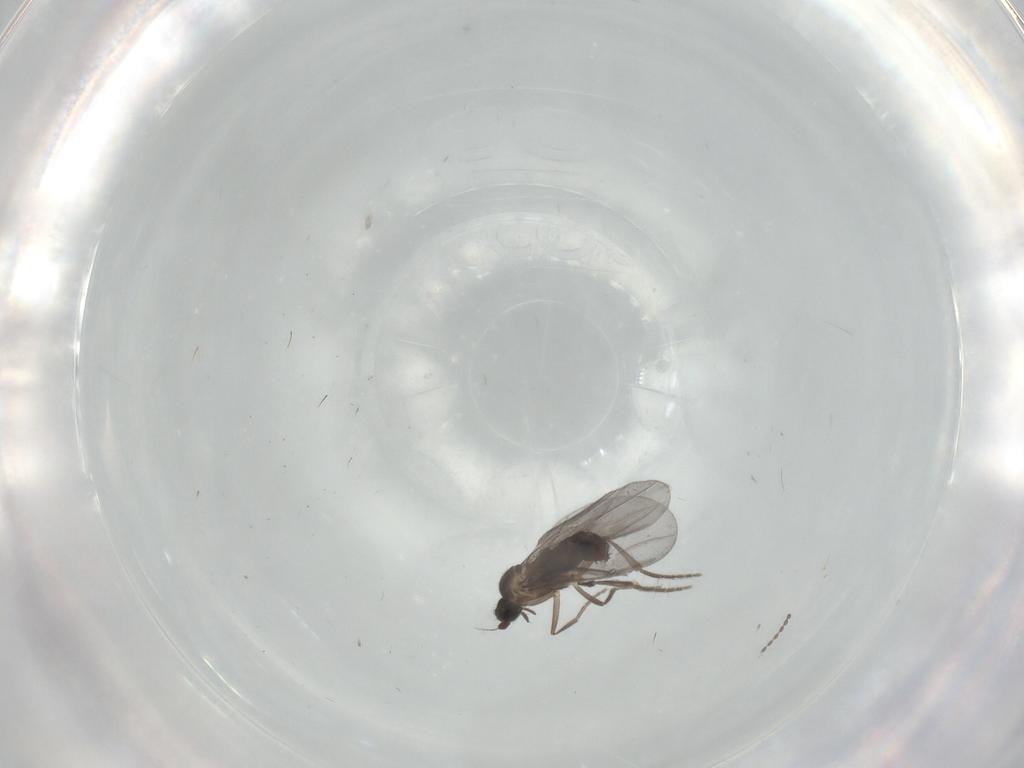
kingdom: Animalia
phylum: Arthropoda
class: Insecta
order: Diptera
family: Phoridae
